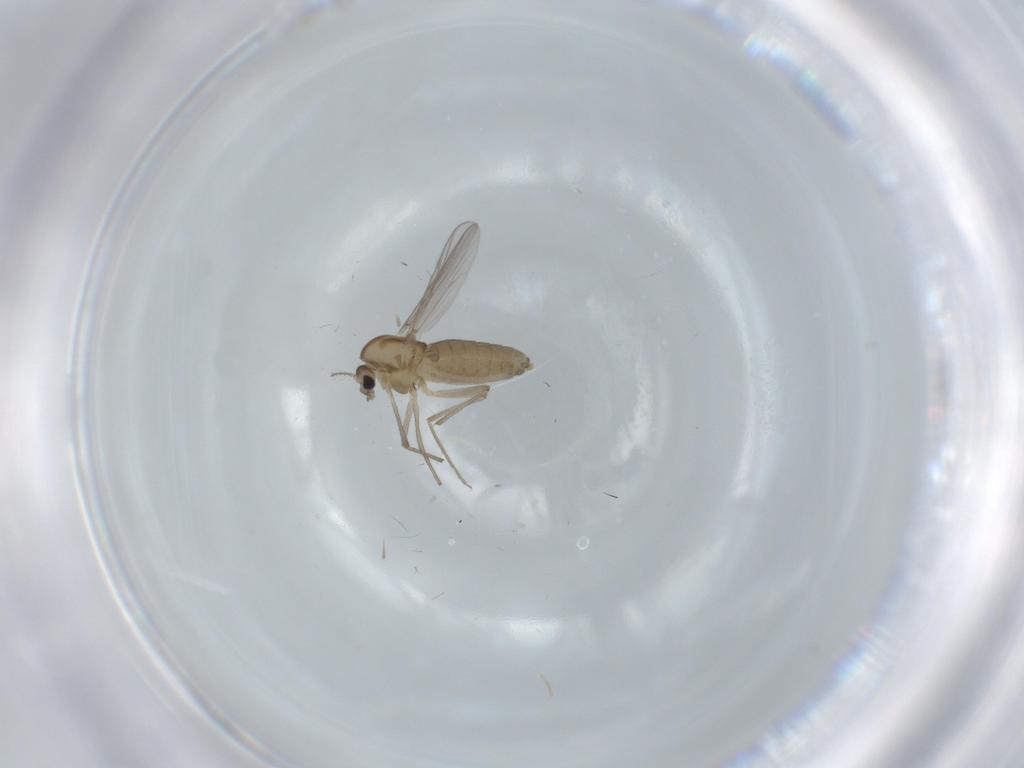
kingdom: Animalia
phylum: Arthropoda
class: Insecta
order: Diptera
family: Chironomidae
